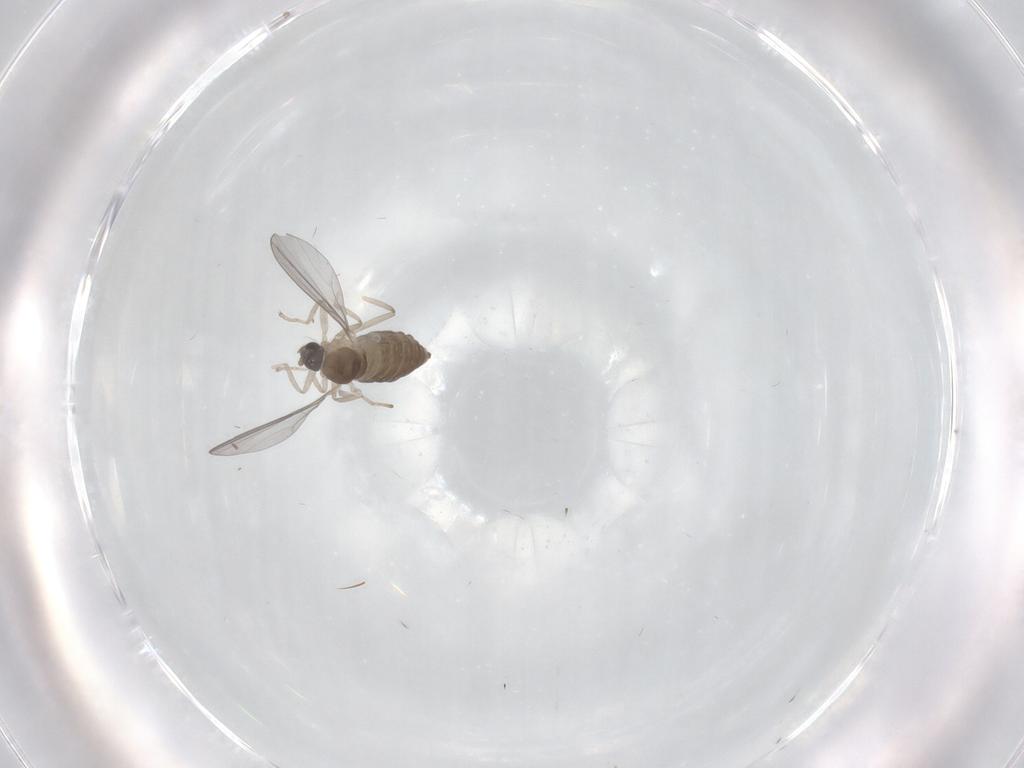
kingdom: Animalia
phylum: Arthropoda
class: Insecta
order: Diptera
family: Cecidomyiidae
